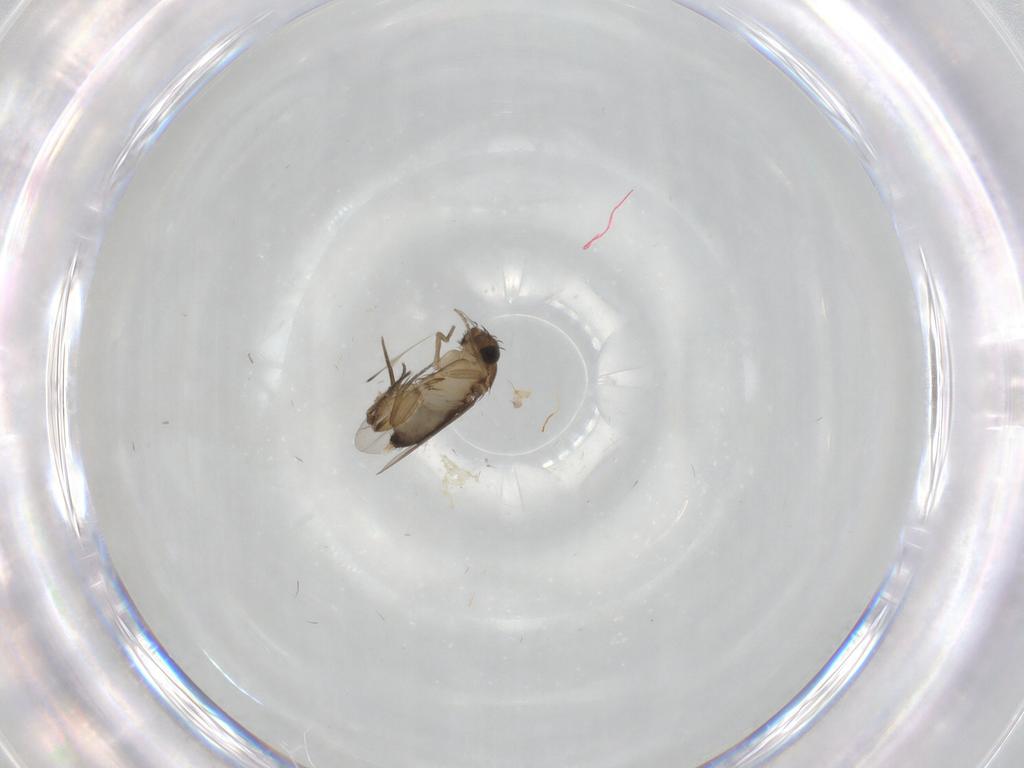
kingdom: Animalia
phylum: Arthropoda
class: Insecta
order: Diptera
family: Phoridae
